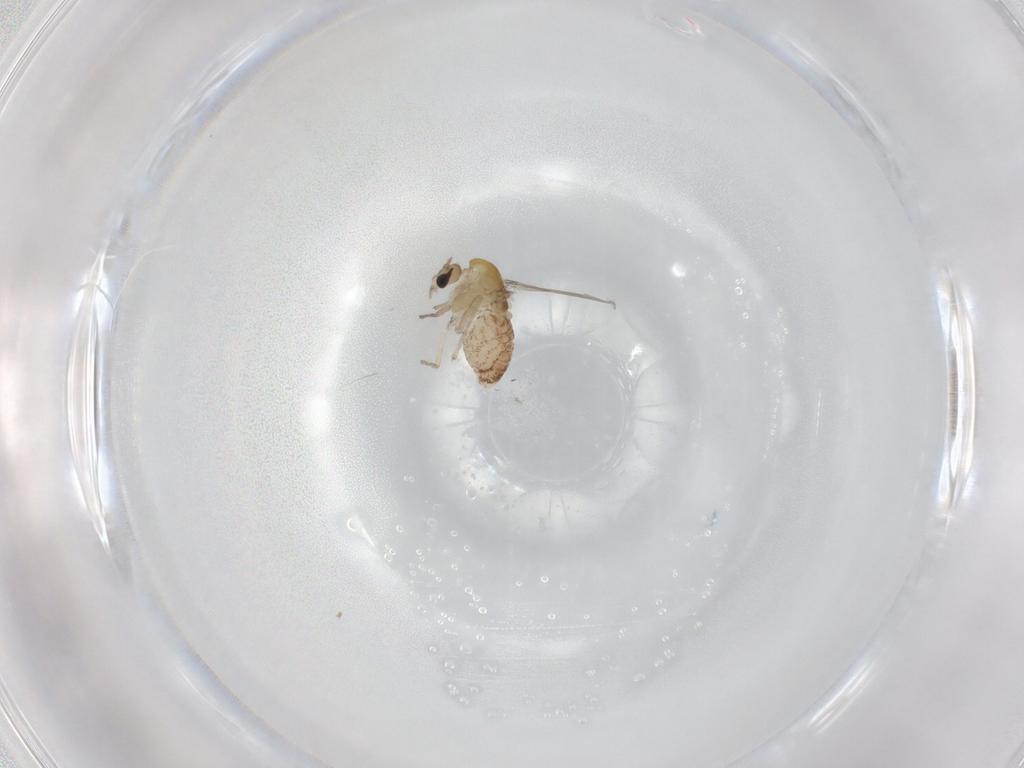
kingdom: Animalia
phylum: Arthropoda
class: Insecta
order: Diptera
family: Chironomidae
